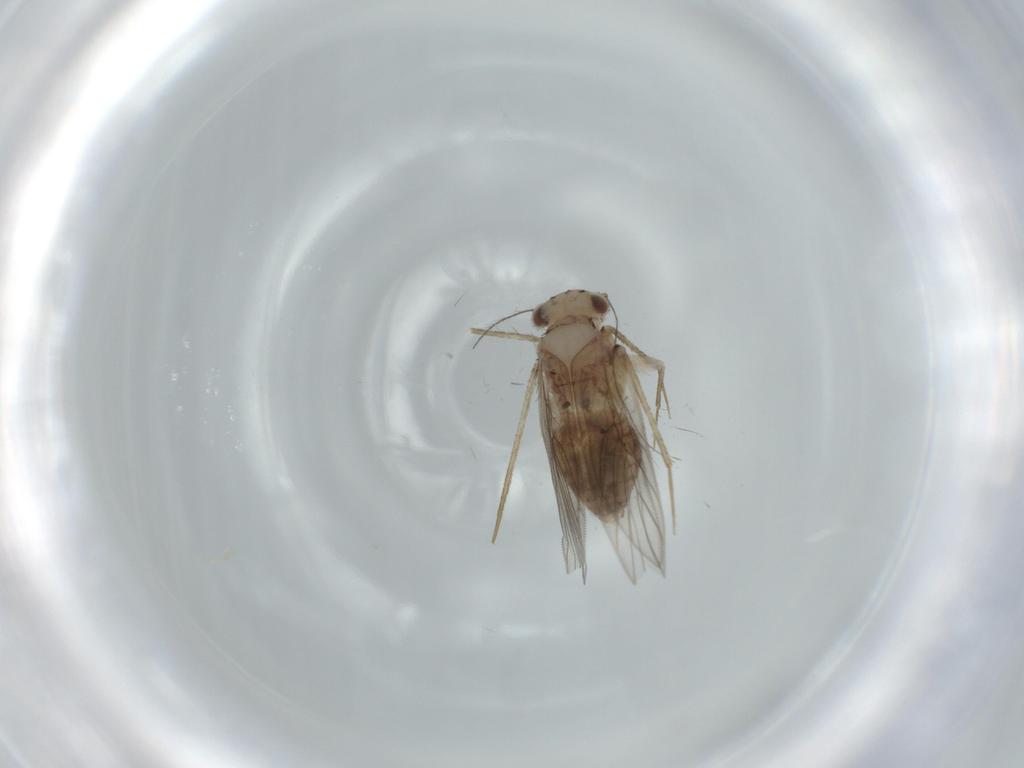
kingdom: Animalia
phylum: Arthropoda
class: Insecta
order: Psocodea
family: Lepidopsocidae
